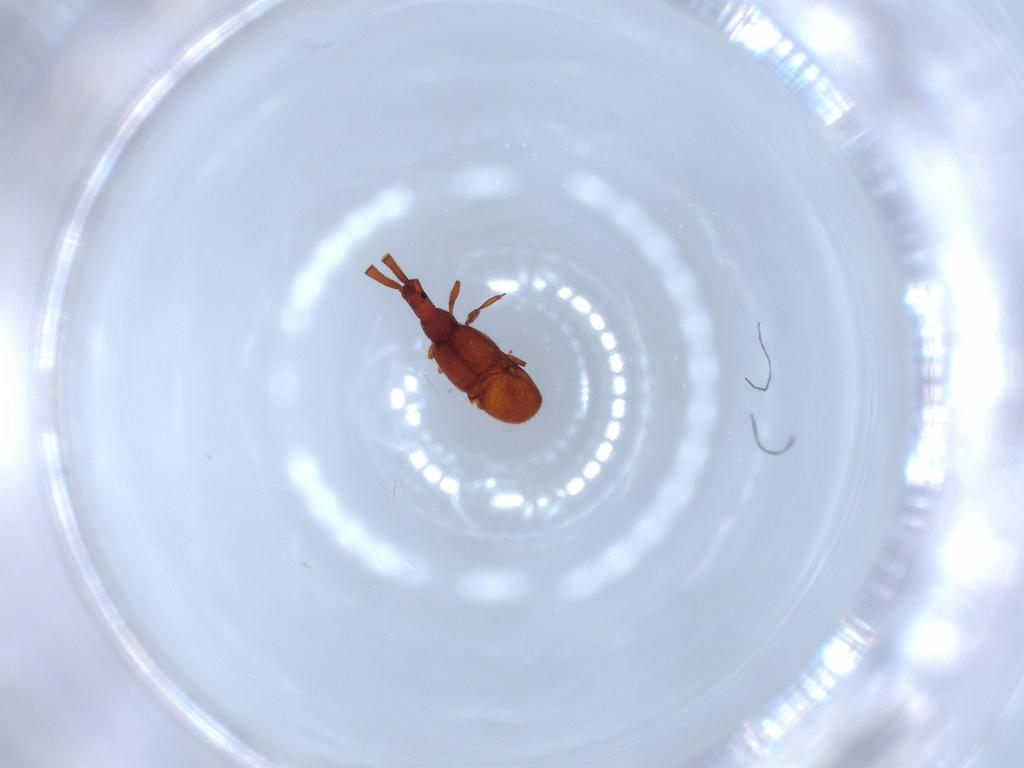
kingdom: Animalia
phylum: Arthropoda
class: Insecta
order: Coleoptera
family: Staphylinidae
